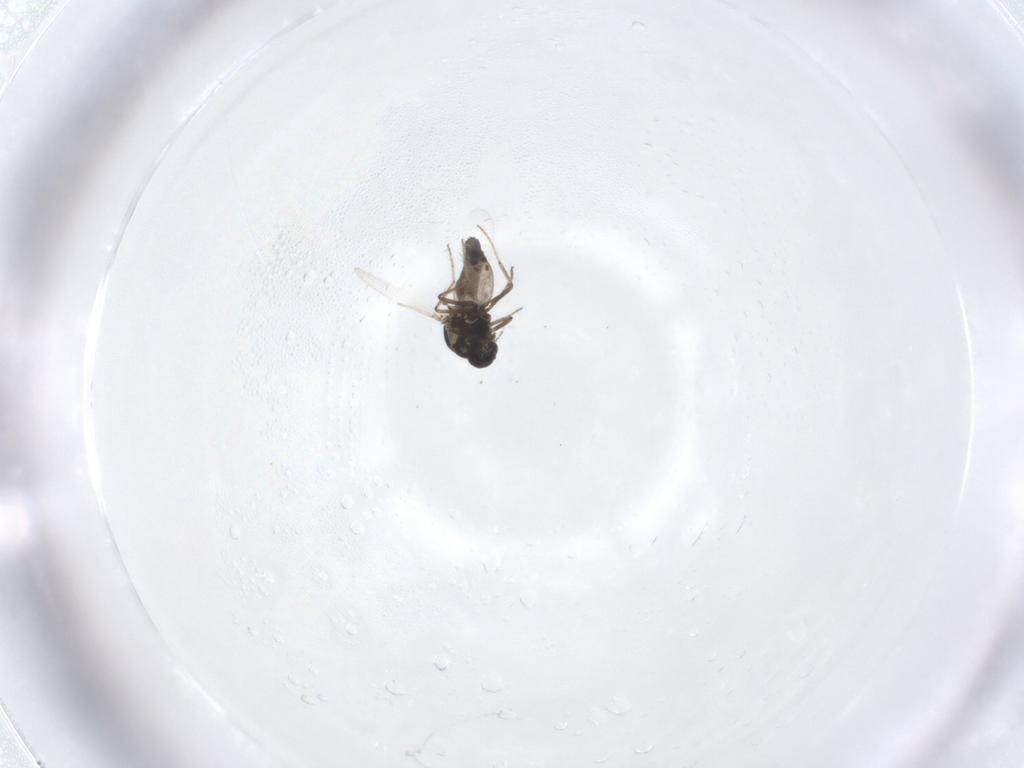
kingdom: Animalia
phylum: Arthropoda
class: Insecta
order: Diptera
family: Ceratopogonidae
